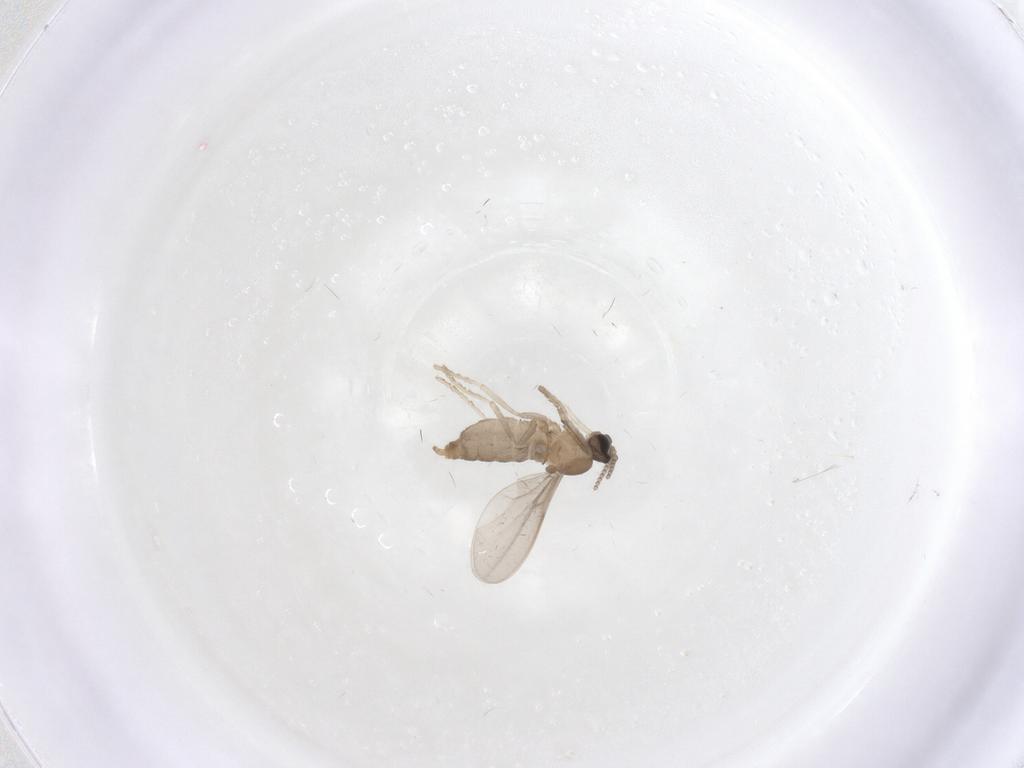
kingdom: Animalia
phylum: Arthropoda
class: Insecta
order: Diptera
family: Cecidomyiidae
